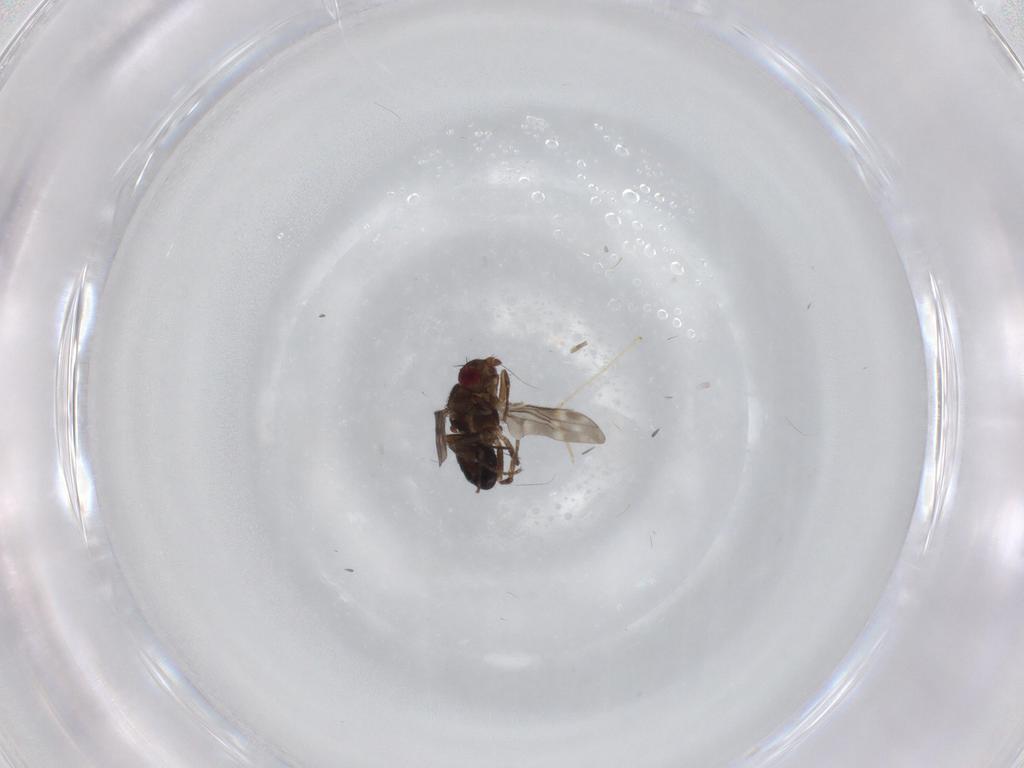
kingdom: Animalia
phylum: Arthropoda
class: Insecta
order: Diptera
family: Sphaeroceridae
